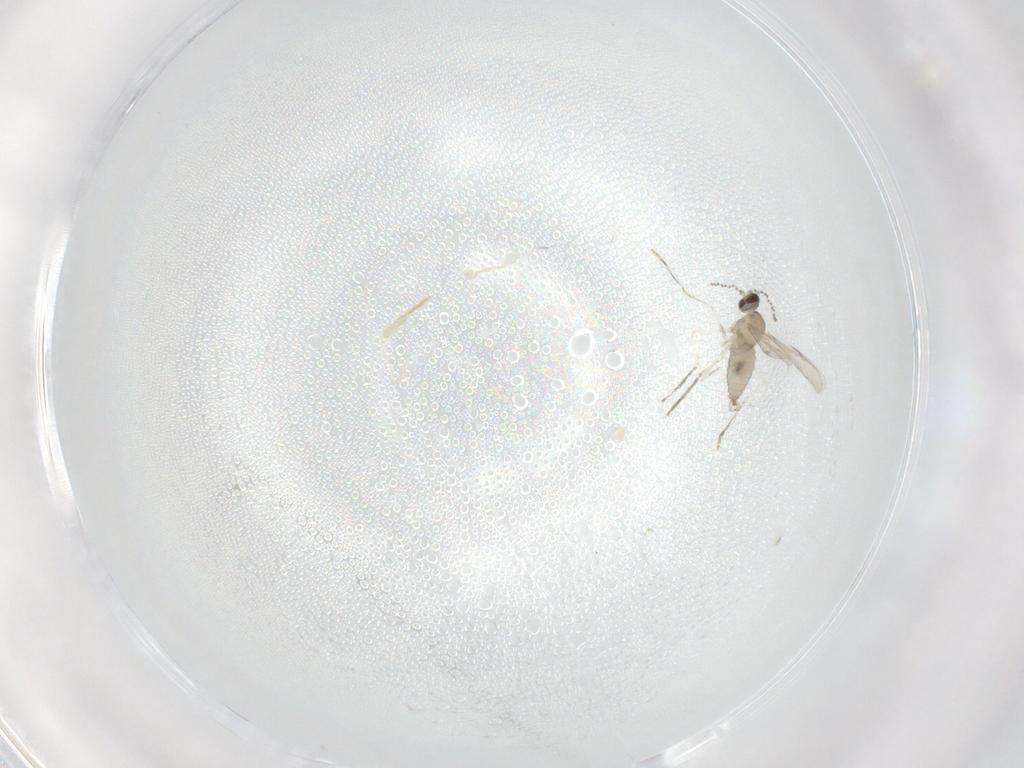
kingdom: Animalia
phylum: Arthropoda
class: Insecta
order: Diptera
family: Cecidomyiidae
